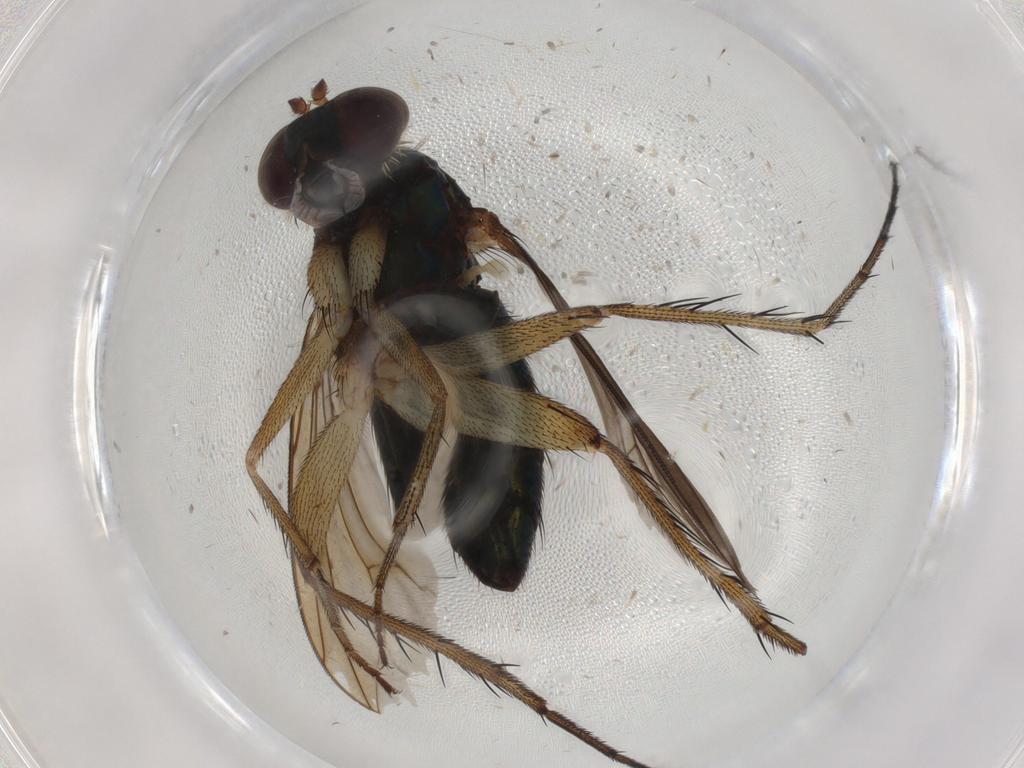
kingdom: Animalia
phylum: Arthropoda
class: Insecta
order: Diptera
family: Dolichopodidae
